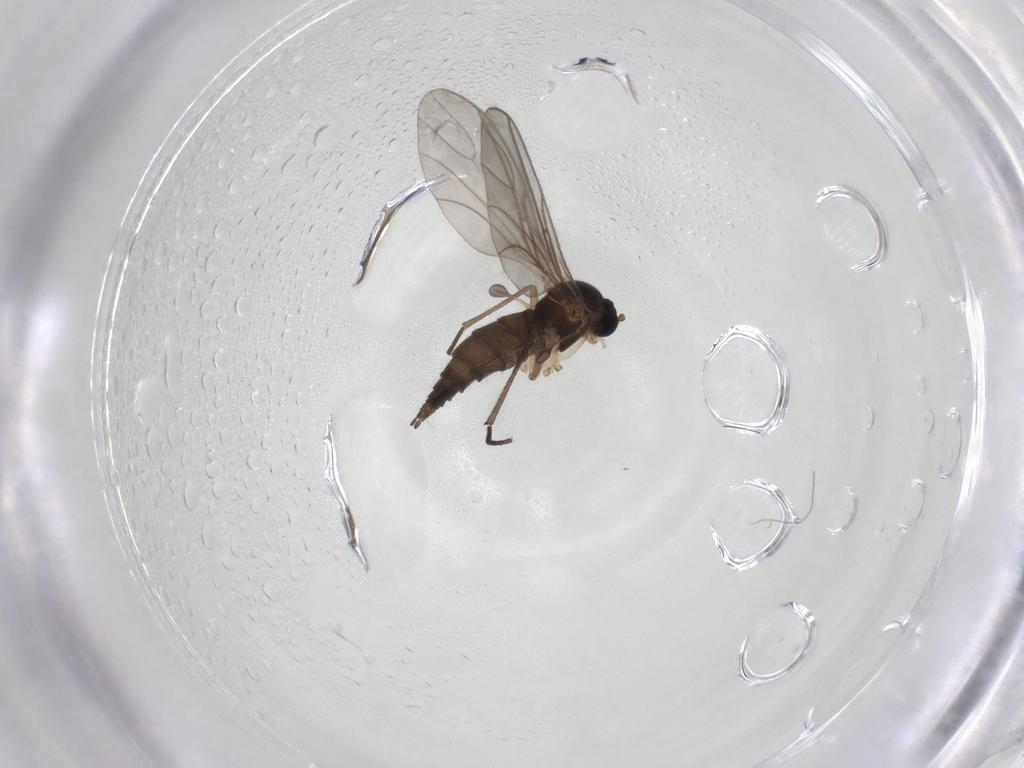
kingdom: Animalia
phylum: Arthropoda
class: Insecta
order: Diptera
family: Sciaridae
